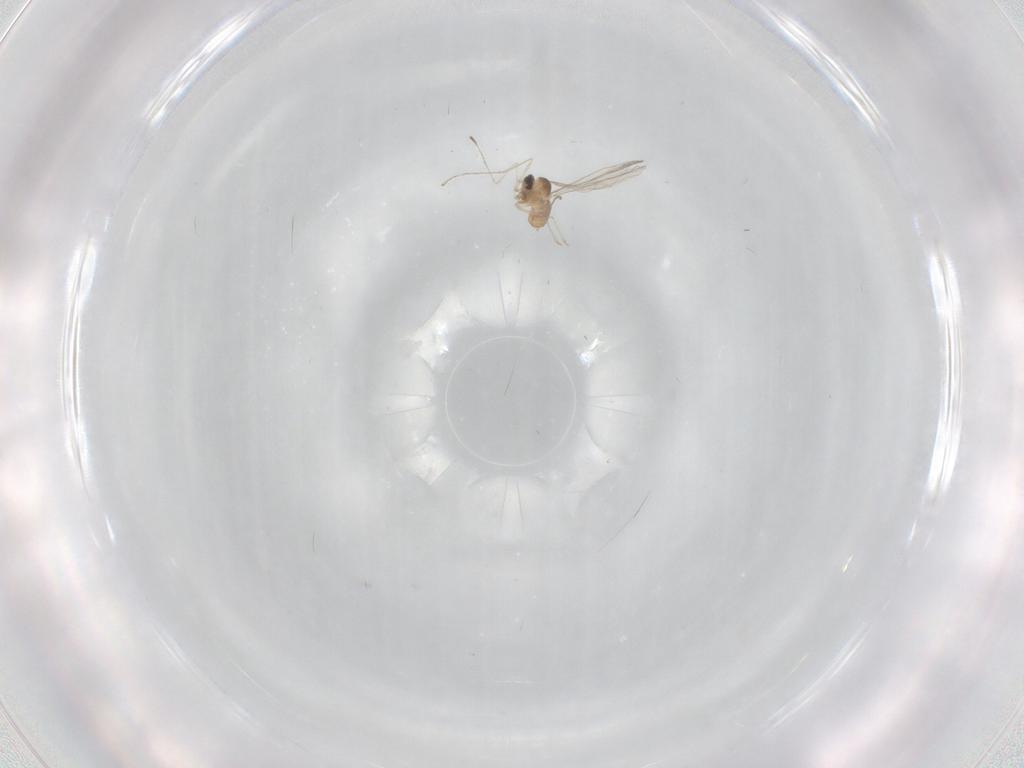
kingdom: Animalia
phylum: Arthropoda
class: Insecta
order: Diptera
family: Cecidomyiidae
